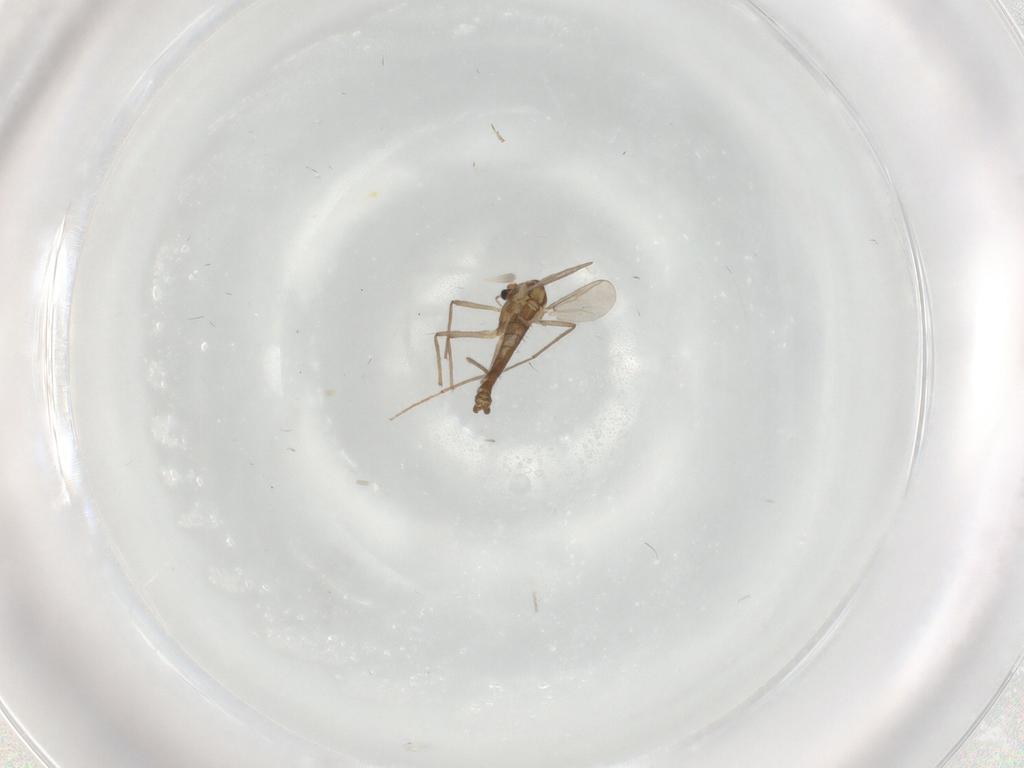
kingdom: Animalia
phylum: Arthropoda
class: Insecta
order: Diptera
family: Chironomidae
